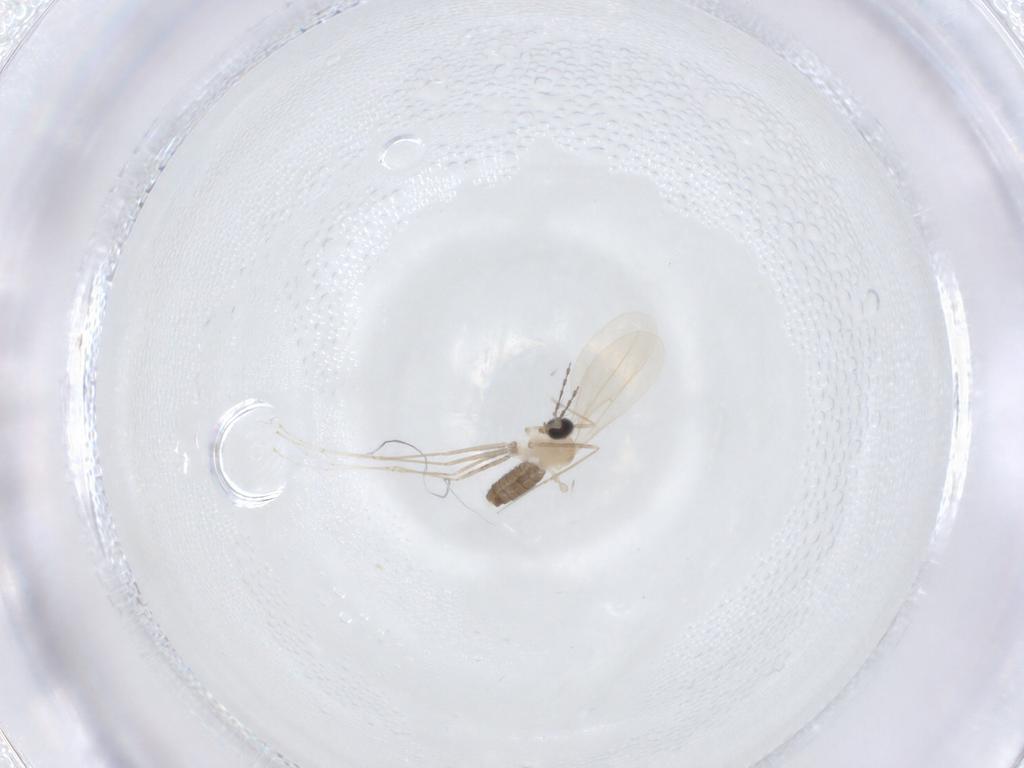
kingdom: Animalia
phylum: Arthropoda
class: Insecta
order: Diptera
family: Cecidomyiidae
